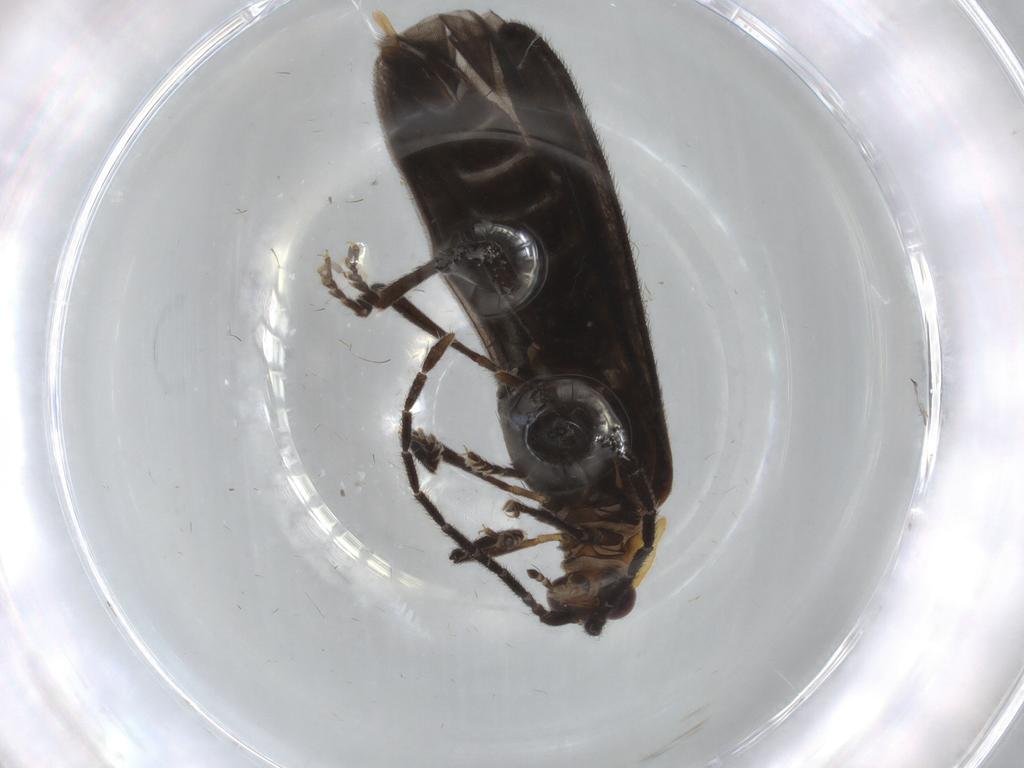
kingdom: Animalia
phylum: Arthropoda
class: Insecta
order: Coleoptera
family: Lycidae
